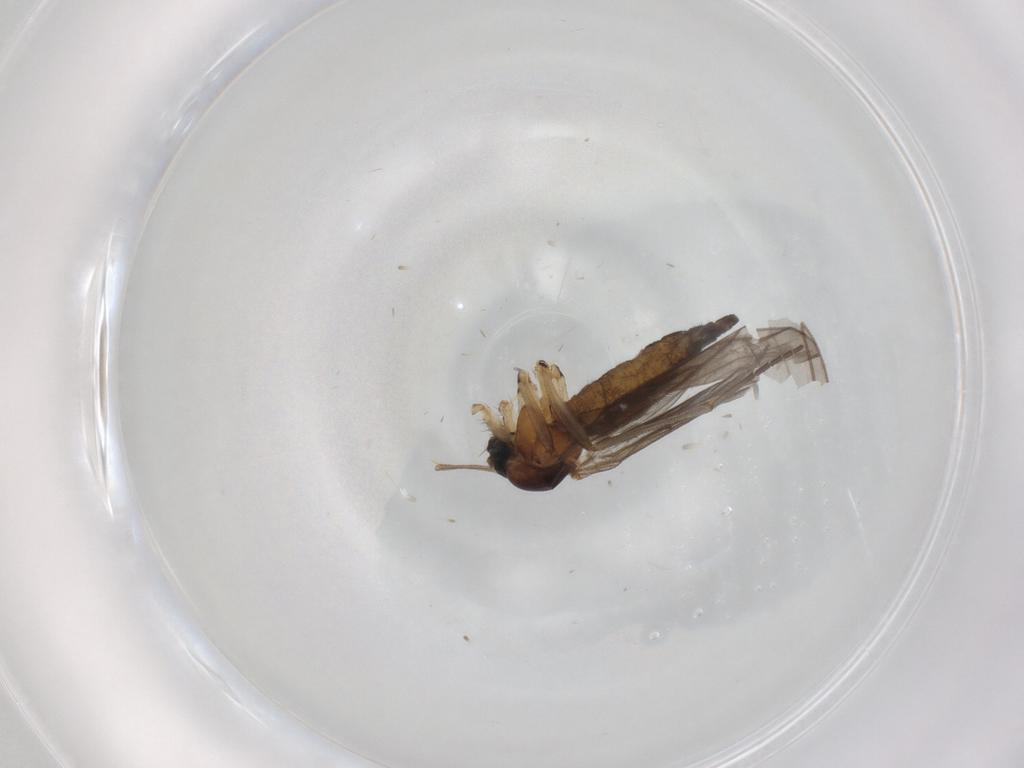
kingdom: Animalia
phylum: Arthropoda
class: Insecta
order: Diptera
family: Sciaridae
